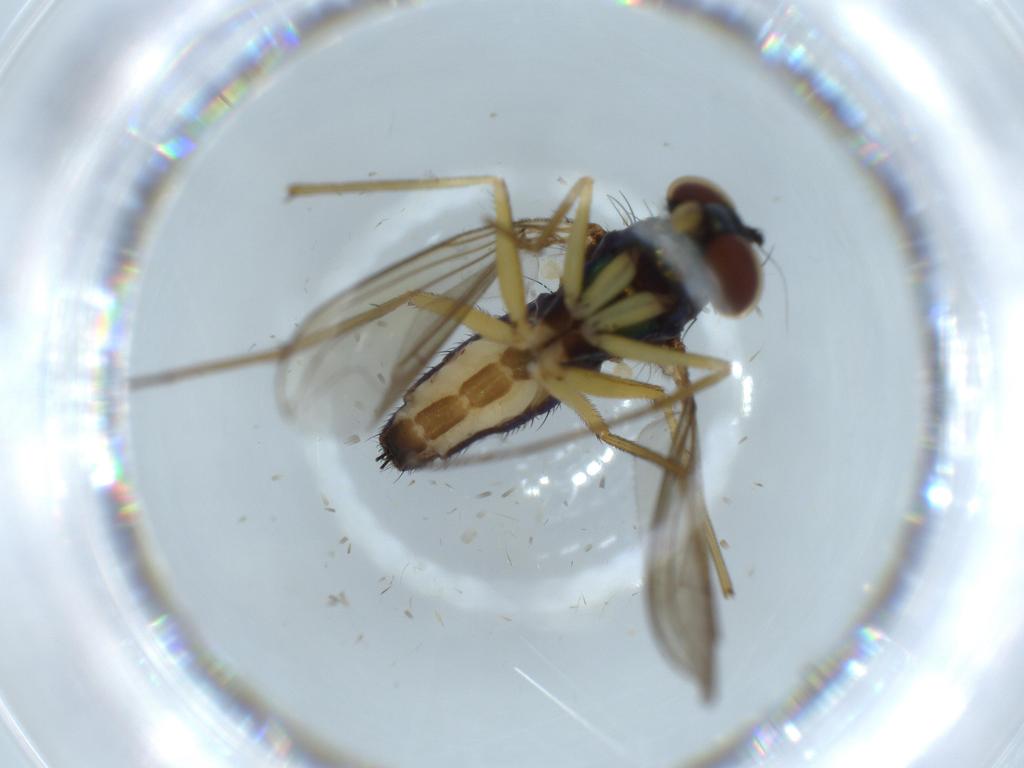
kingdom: Animalia
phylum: Arthropoda
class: Insecta
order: Diptera
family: Dolichopodidae
